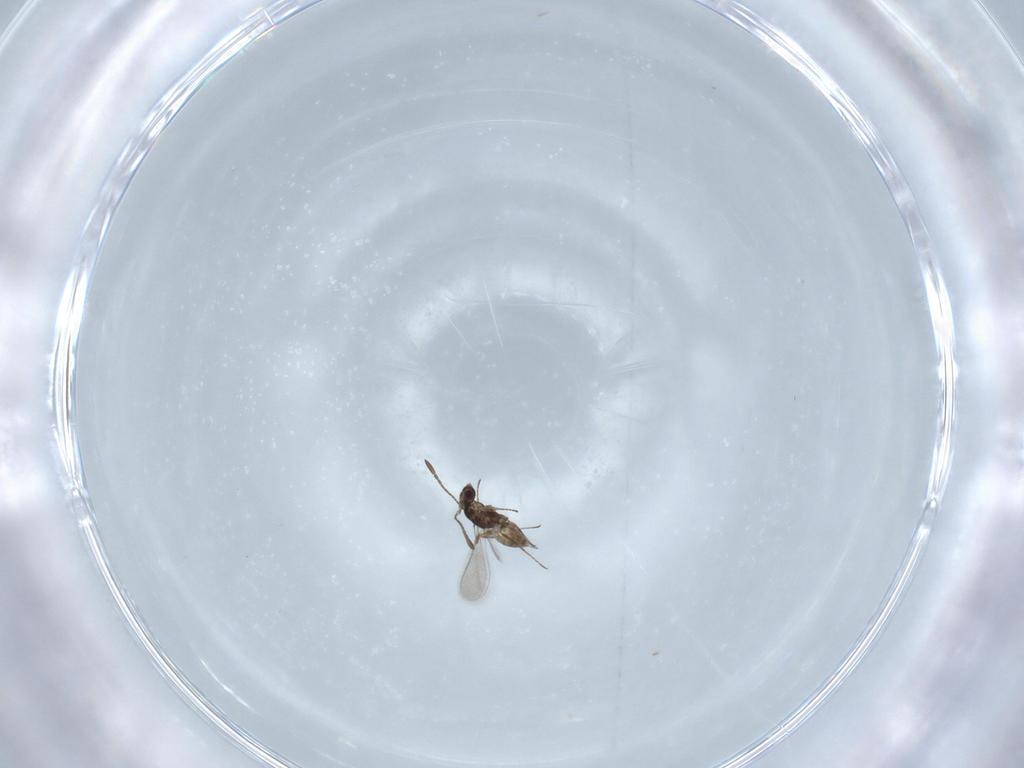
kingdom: Animalia
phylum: Arthropoda
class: Insecta
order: Hymenoptera
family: Mymaridae
